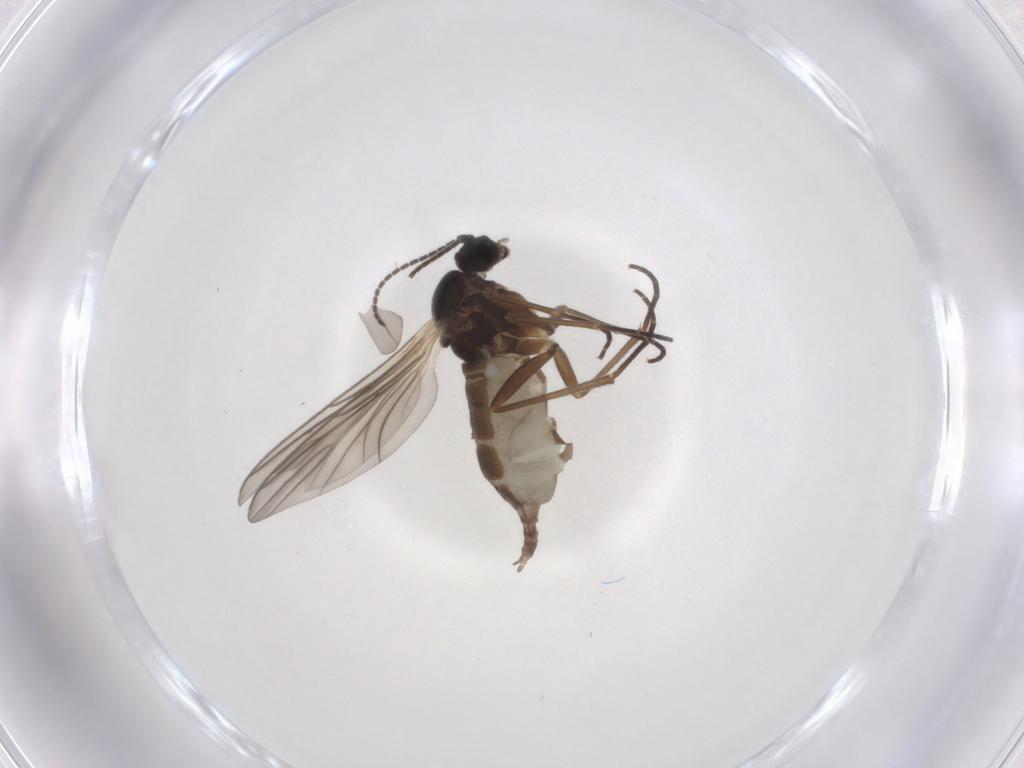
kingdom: Animalia
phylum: Arthropoda
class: Insecta
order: Diptera
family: Sciaridae
